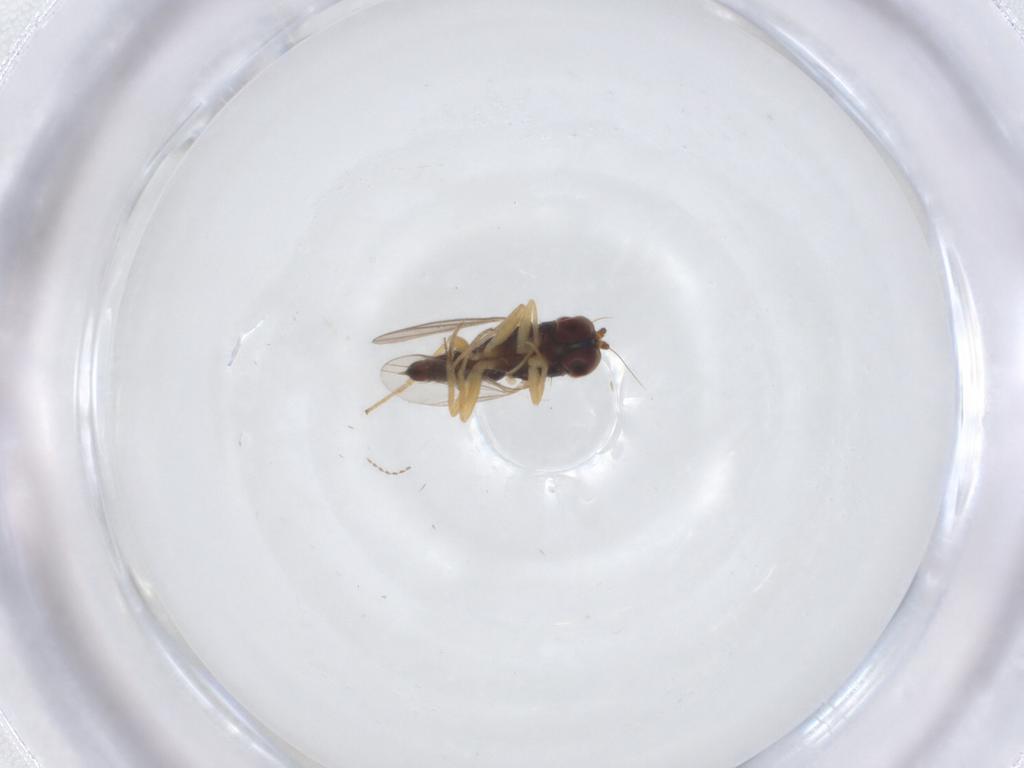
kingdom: Animalia
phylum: Arthropoda
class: Insecta
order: Diptera
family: Dolichopodidae
